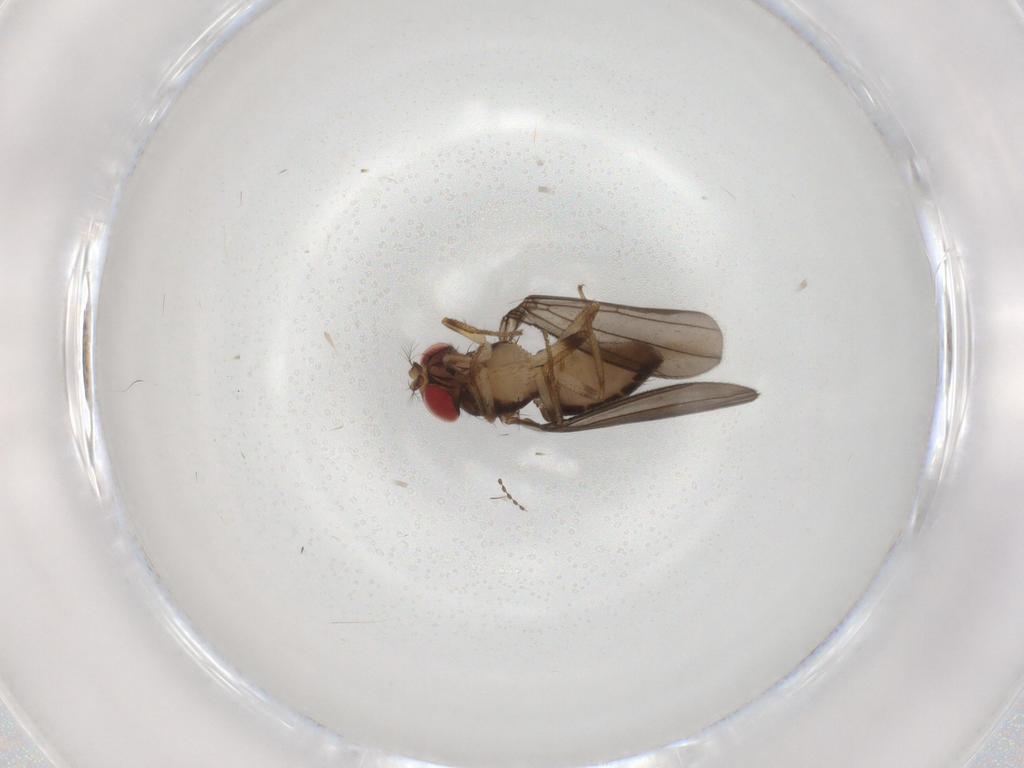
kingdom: Animalia
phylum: Arthropoda
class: Insecta
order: Diptera
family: Drosophilidae
